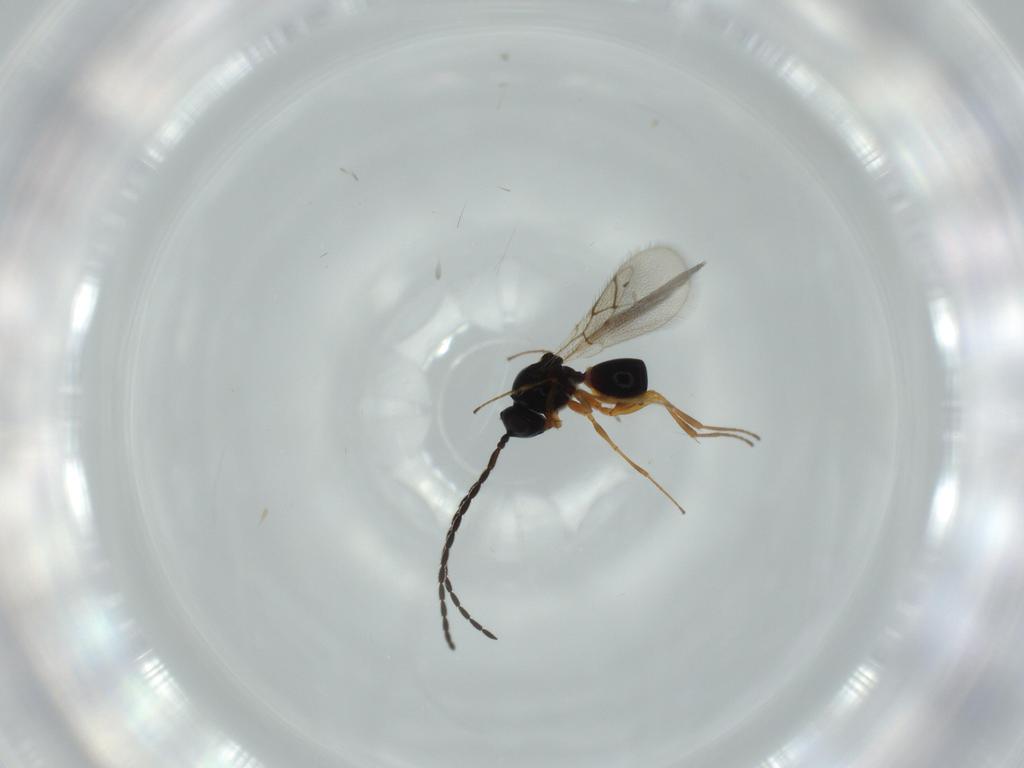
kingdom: Animalia
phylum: Arthropoda
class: Insecta
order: Hymenoptera
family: Figitidae
